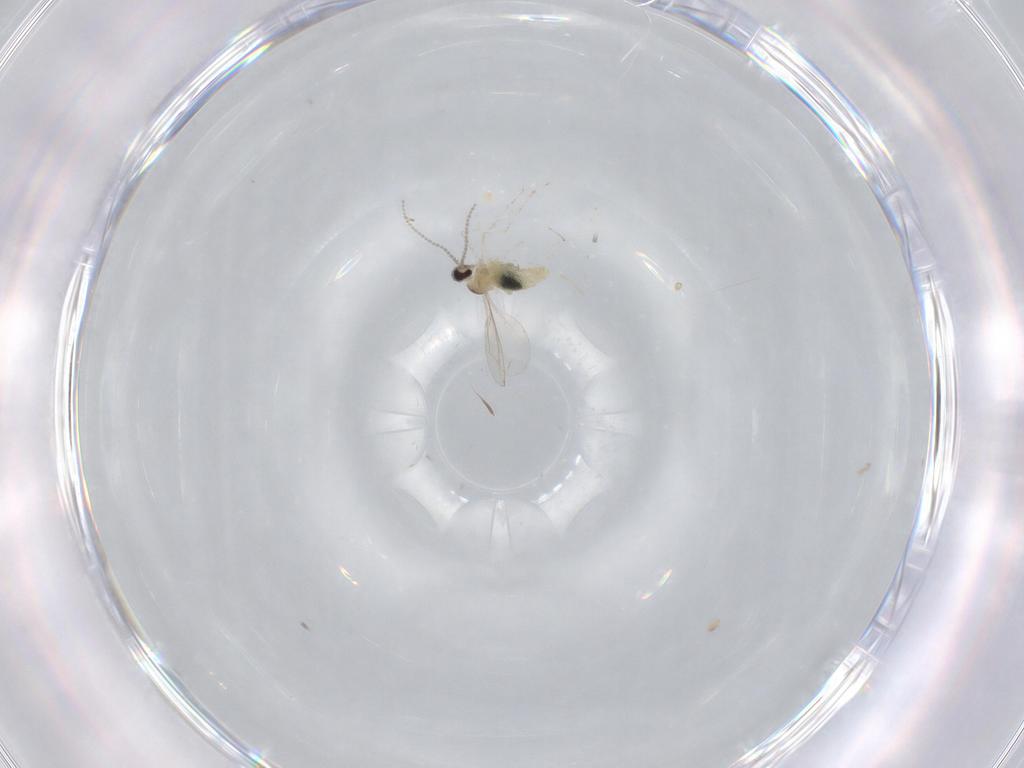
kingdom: Animalia
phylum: Arthropoda
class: Insecta
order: Diptera
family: Cecidomyiidae
